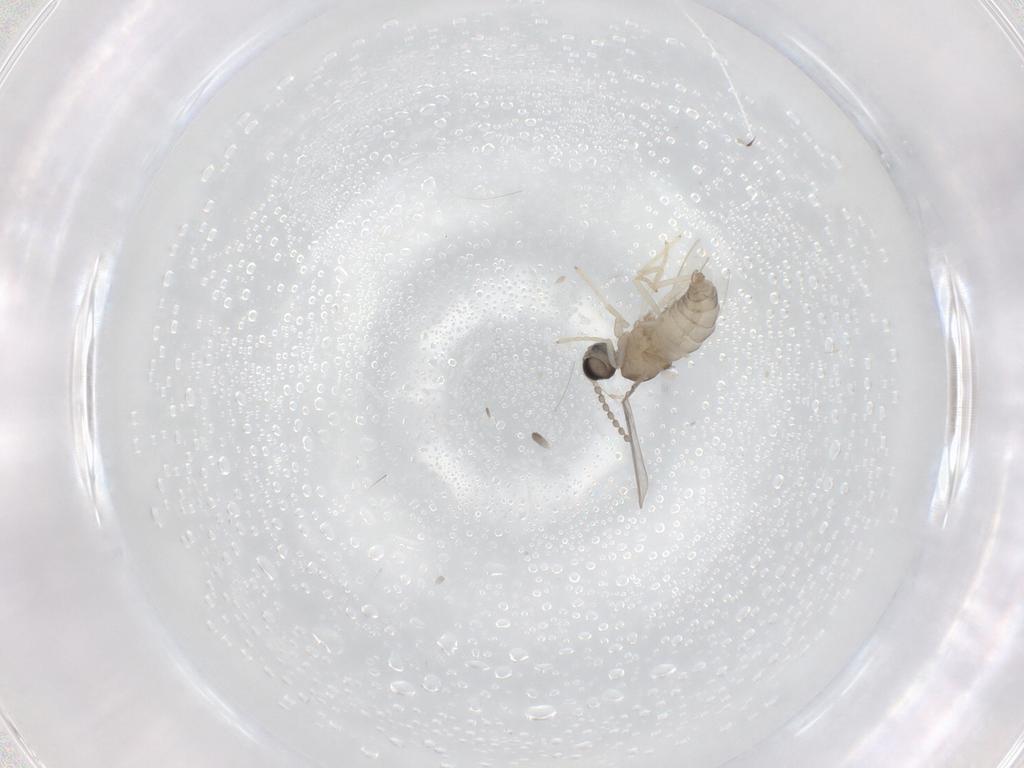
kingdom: Animalia
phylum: Arthropoda
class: Insecta
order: Diptera
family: Cecidomyiidae
